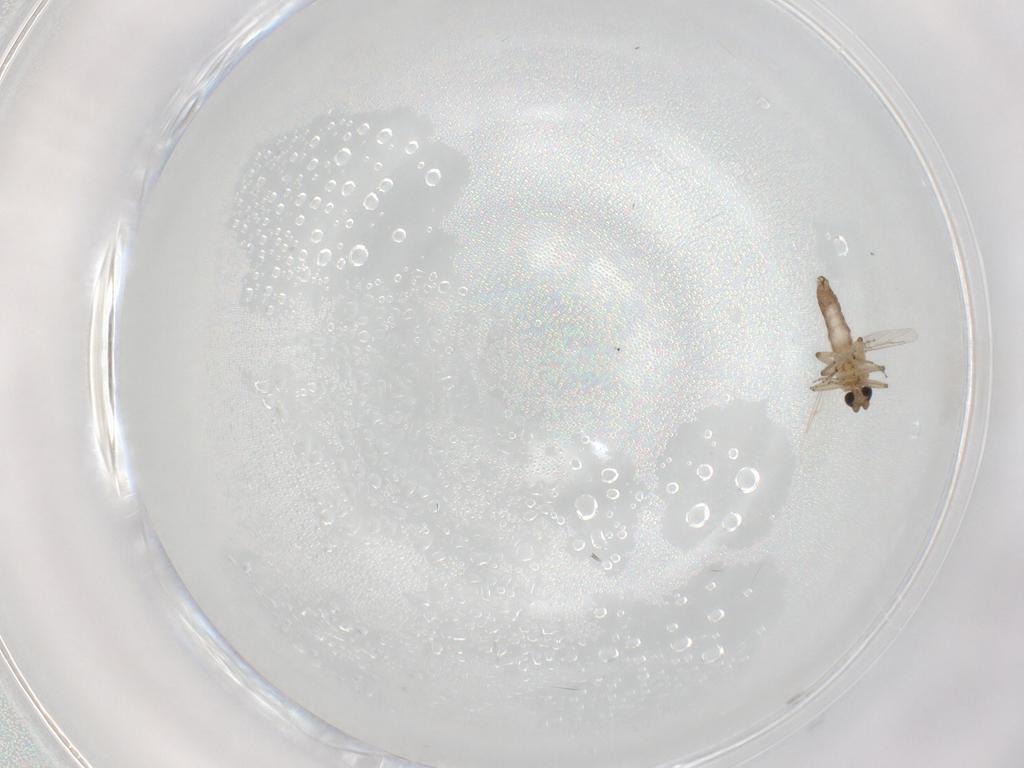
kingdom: Animalia
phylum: Arthropoda
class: Insecta
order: Diptera
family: Ceratopogonidae
